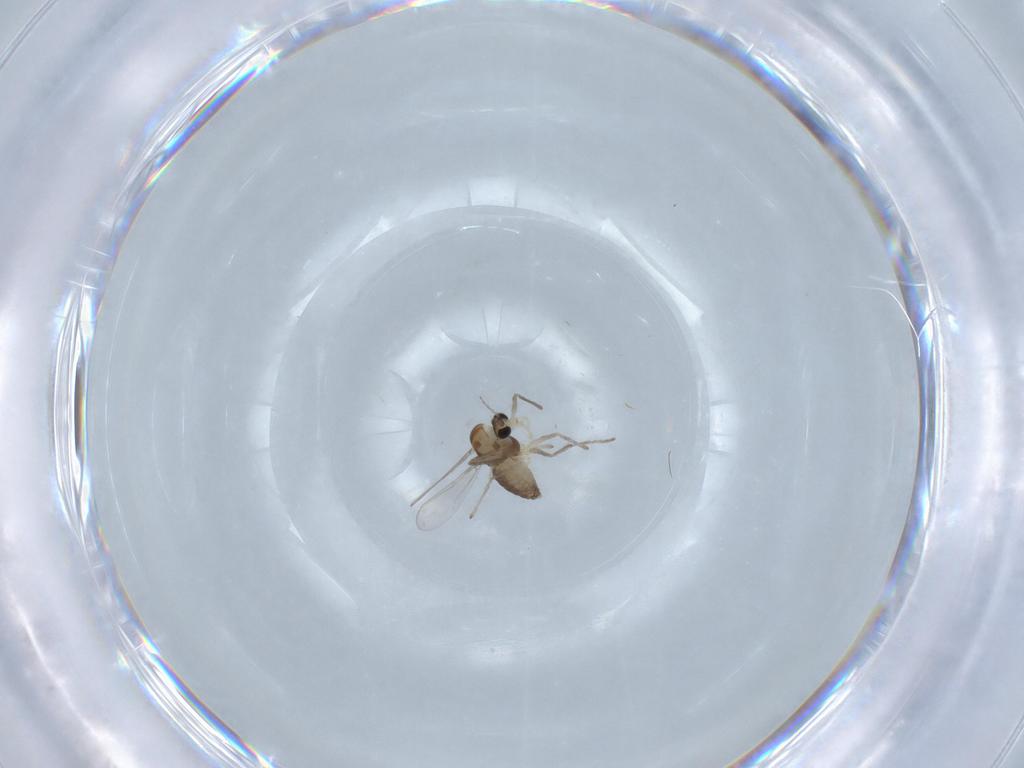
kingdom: Animalia
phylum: Arthropoda
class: Insecta
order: Diptera
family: Chironomidae
